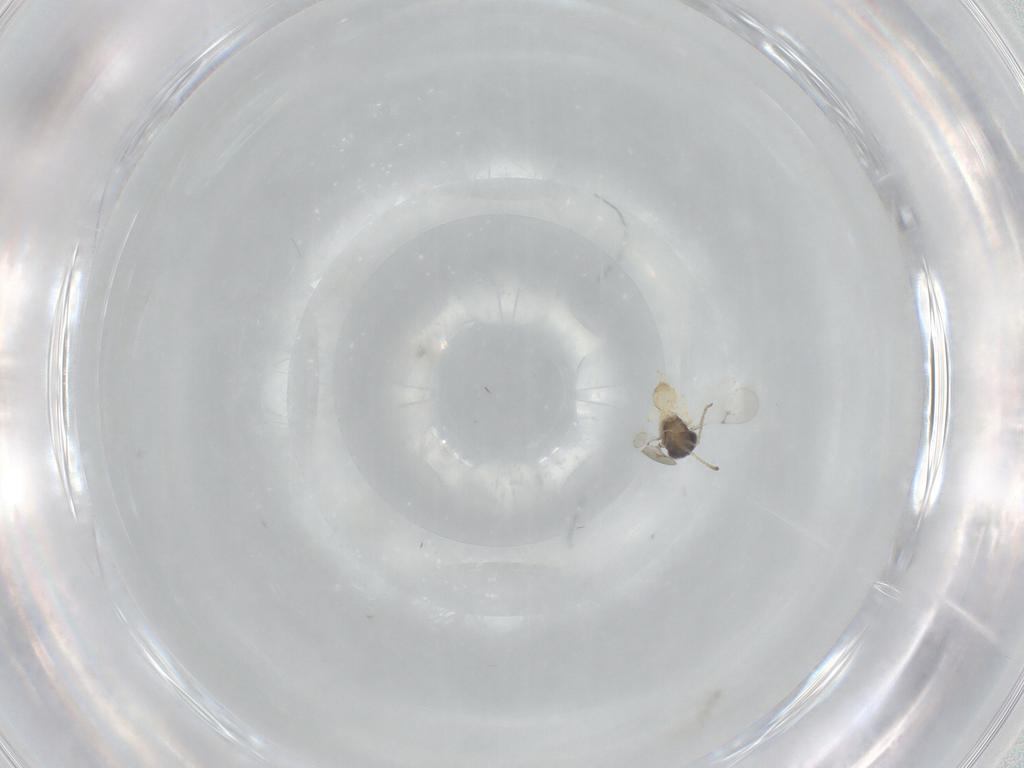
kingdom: Animalia
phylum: Arthropoda
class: Insecta
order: Hymenoptera
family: Scelionidae
